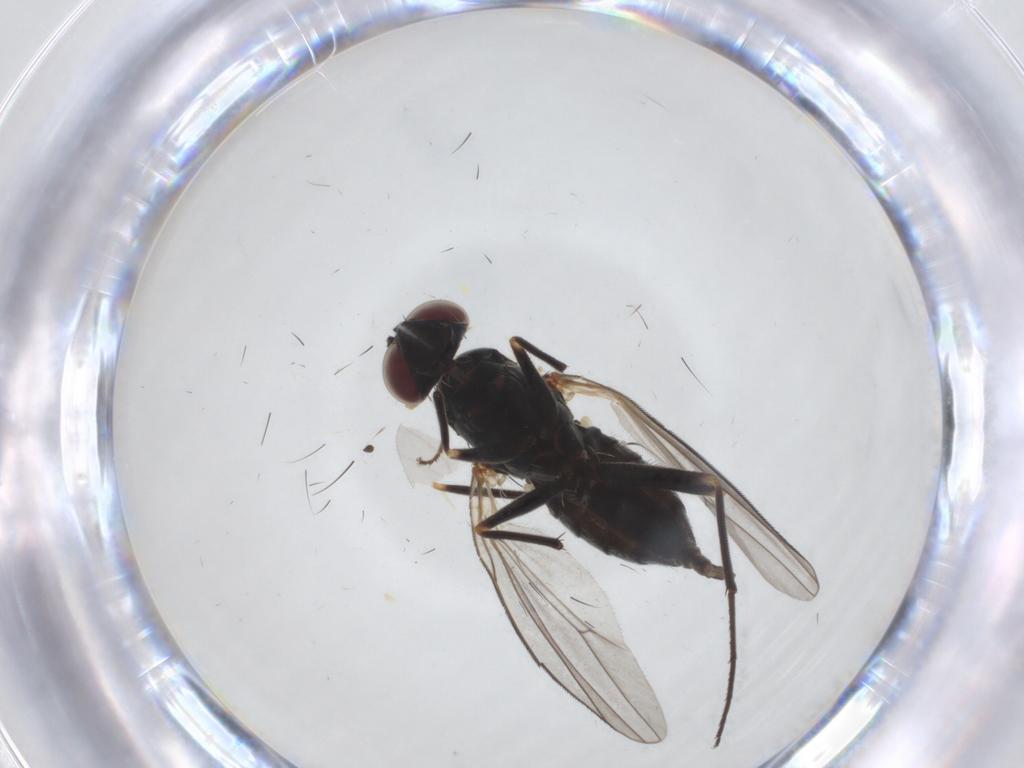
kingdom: Animalia
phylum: Arthropoda
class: Insecta
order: Diptera
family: Dolichopodidae
